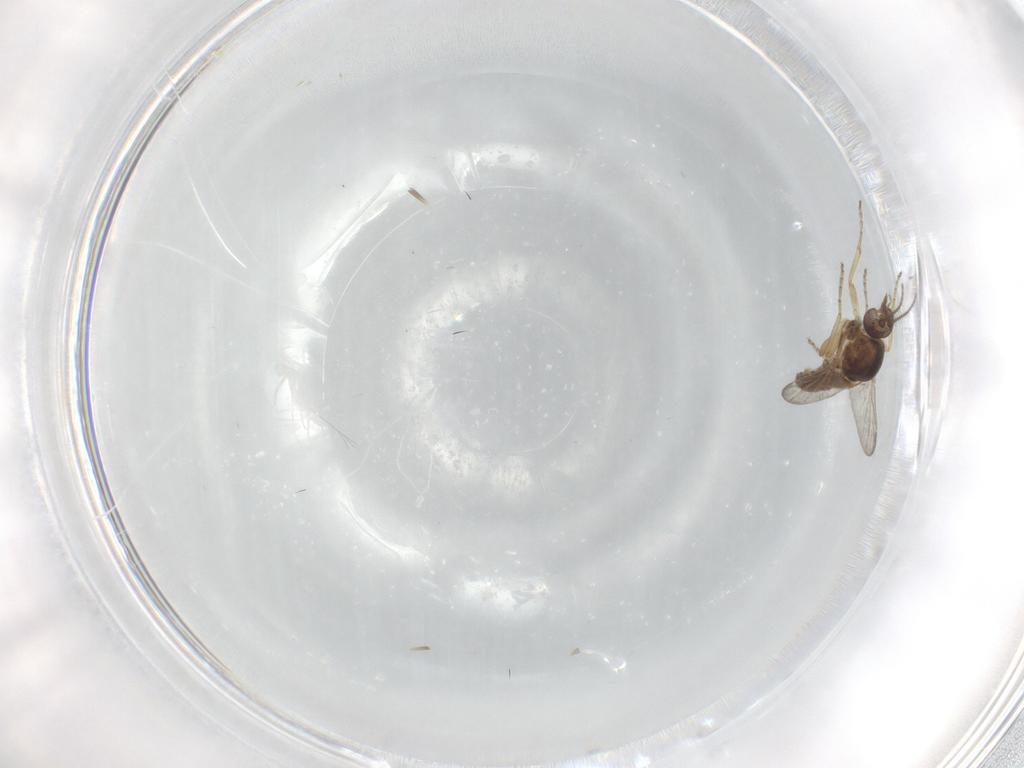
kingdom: Animalia
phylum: Arthropoda
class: Insecta
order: Diptera
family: Ceratopogonidae
